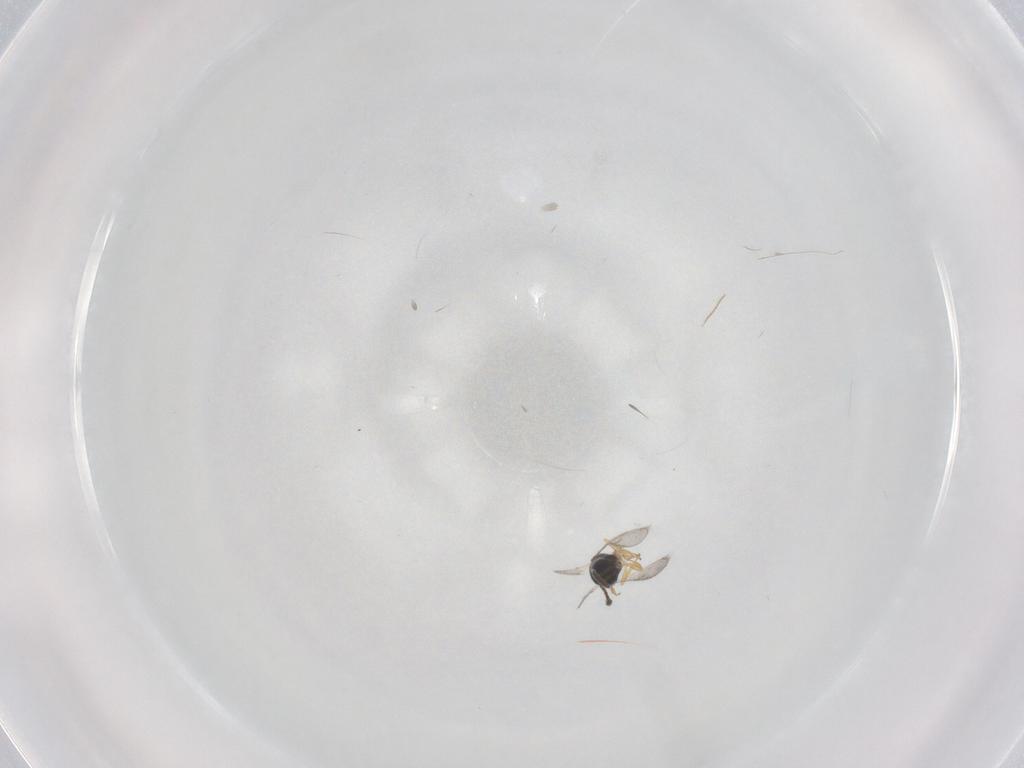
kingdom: Animalia
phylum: Arthropoda
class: Insecta
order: Hymenoptera
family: Scelionidae
